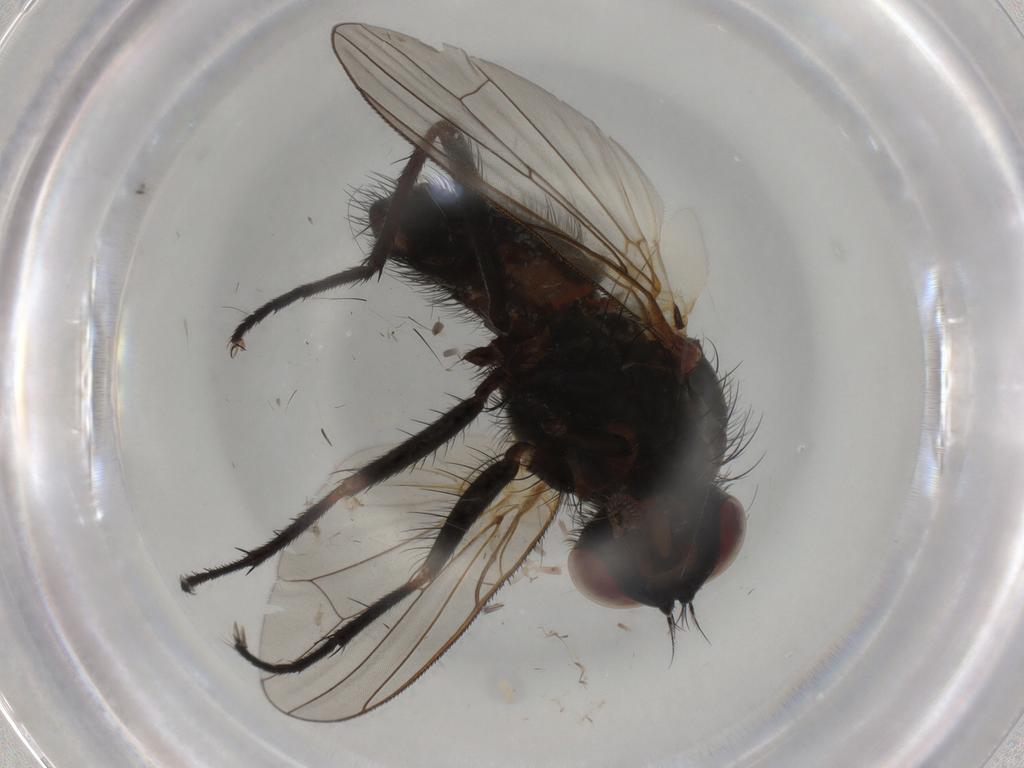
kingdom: Animalia
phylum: Arthropoda
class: Insecta
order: Diptera
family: Anthomyiidae
